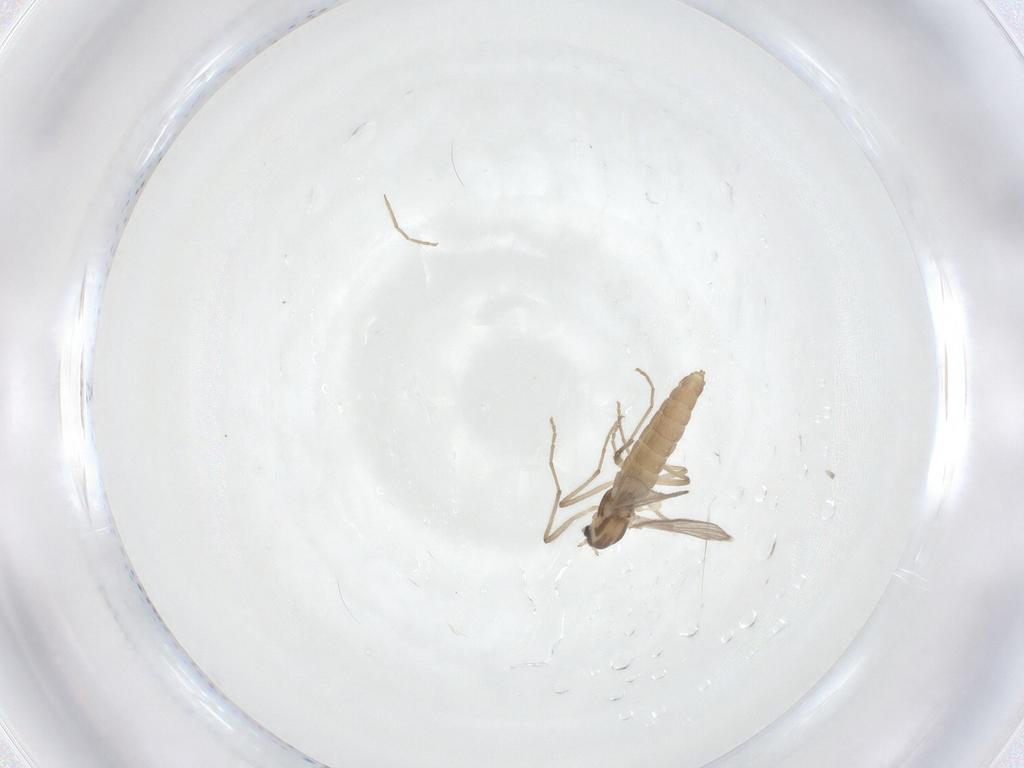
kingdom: Animalia
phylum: Arthropoda
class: Insecta
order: Diptera
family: Chironomidae
